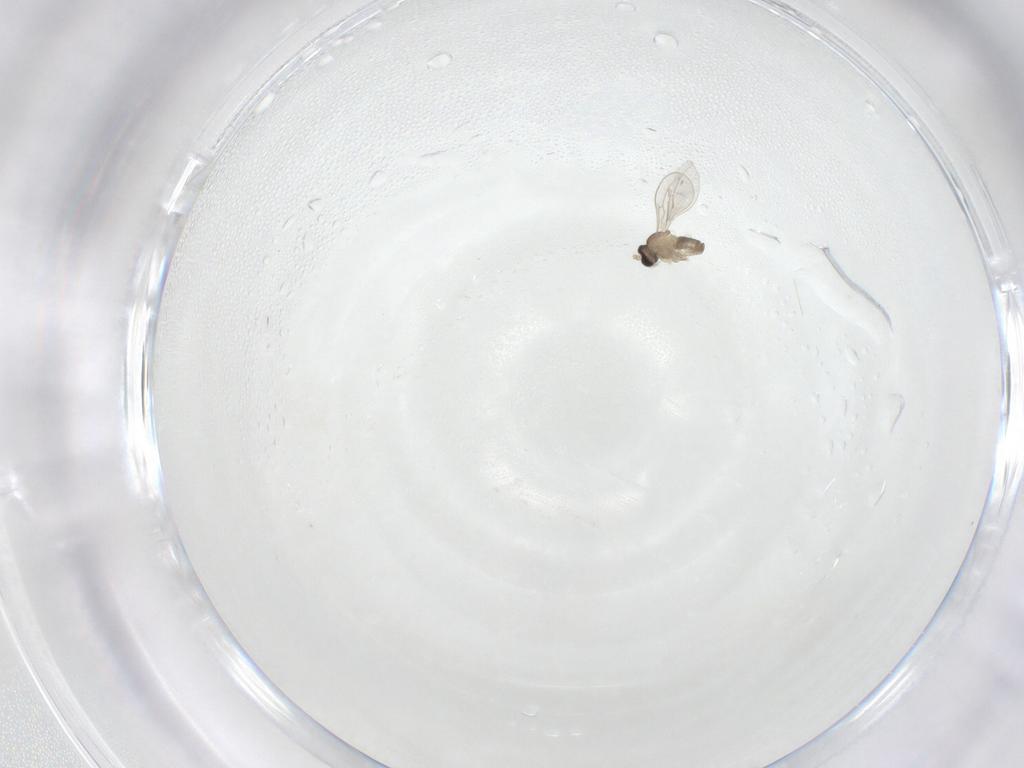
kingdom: Animalia
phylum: Arthropoda
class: Insecta
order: Diptera
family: Cecidomyiidae
